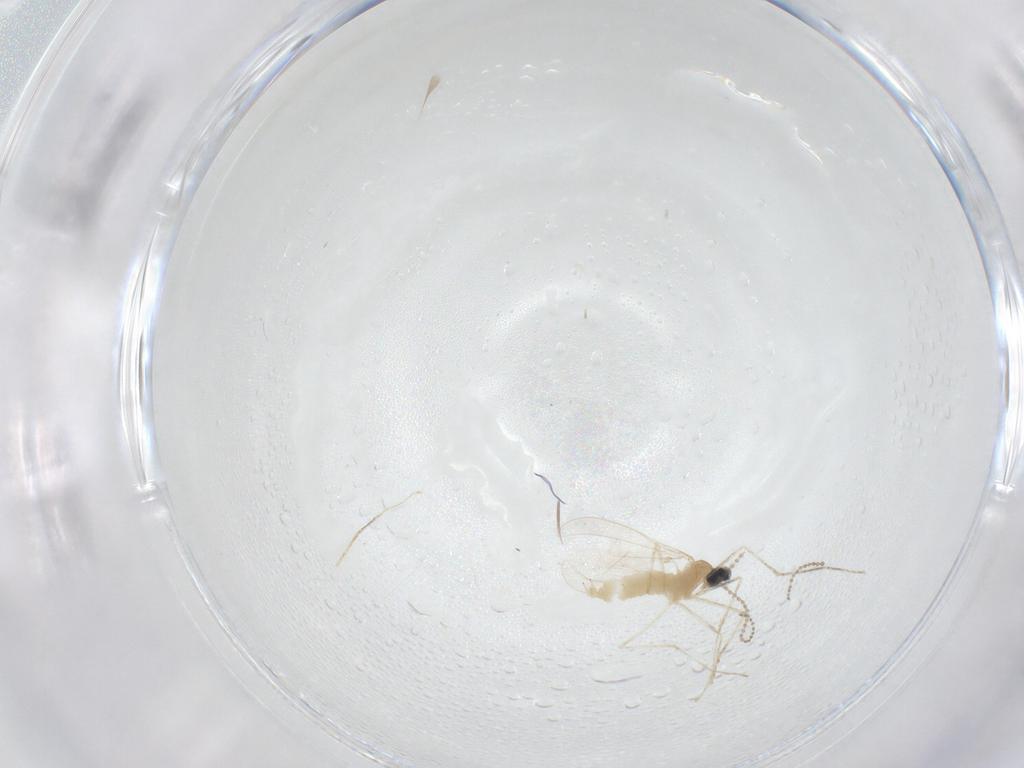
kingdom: Animalia
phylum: Arthropoda
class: Insecta
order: Diptera
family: Cecidomyiidae
